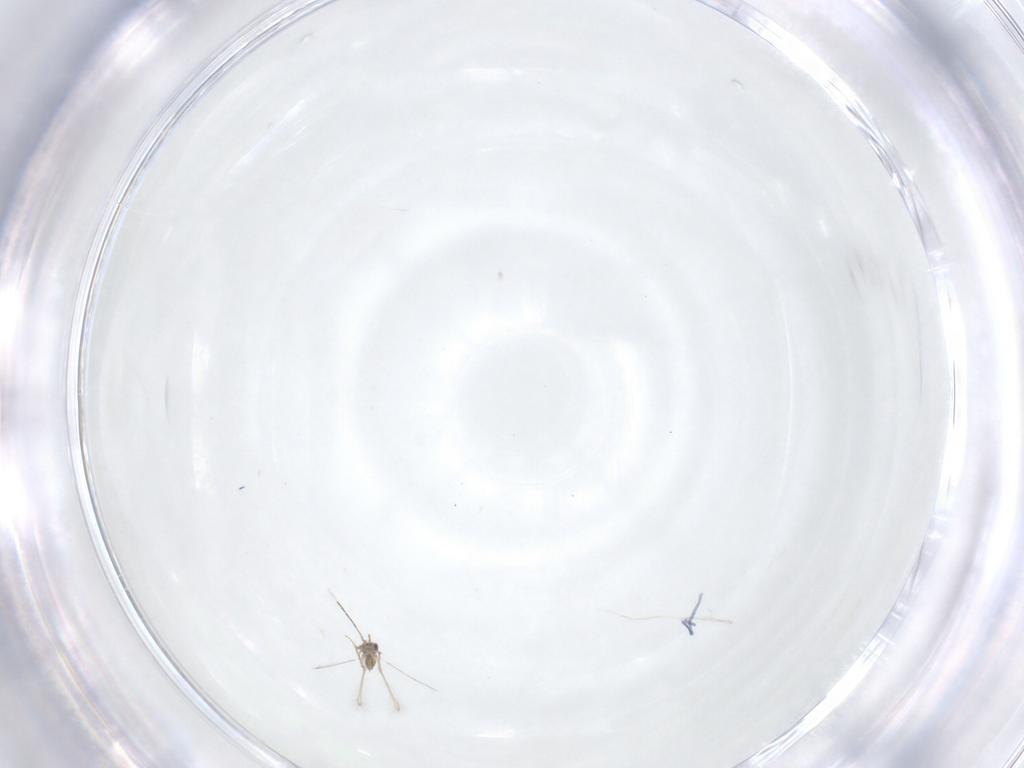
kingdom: Animalia
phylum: Arthropoda
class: Insecta
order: Hymenoptera
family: Mymaridae
